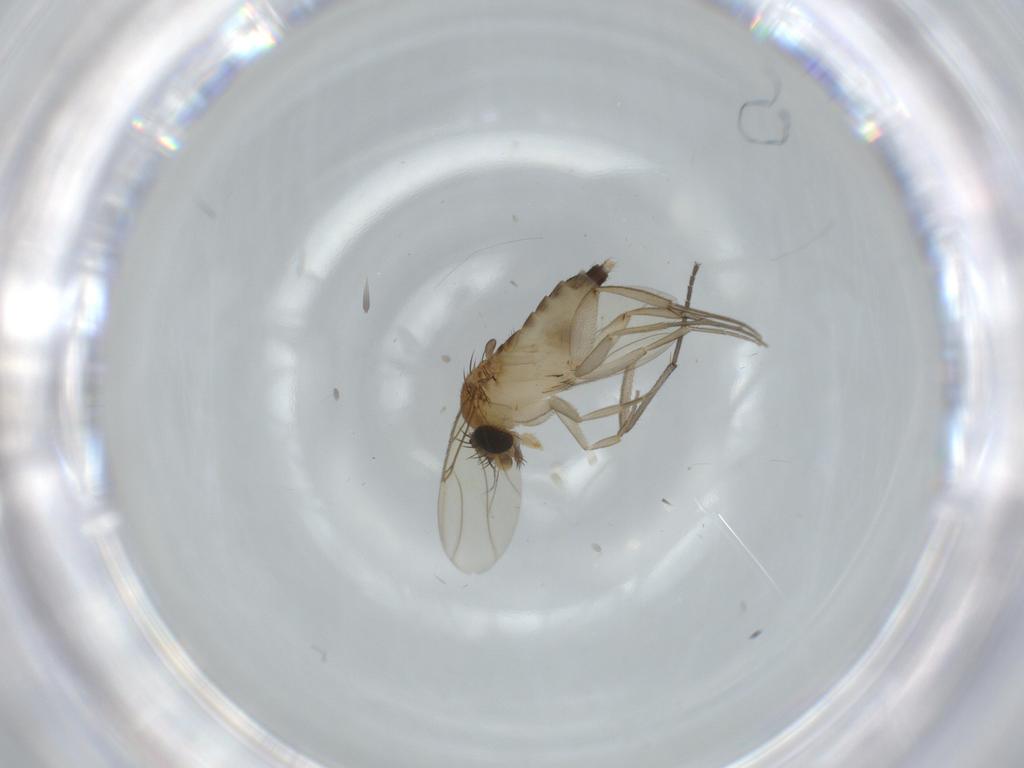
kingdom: Animalia
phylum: Arthropoda
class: Insecta
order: Diptera
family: Phoridae
